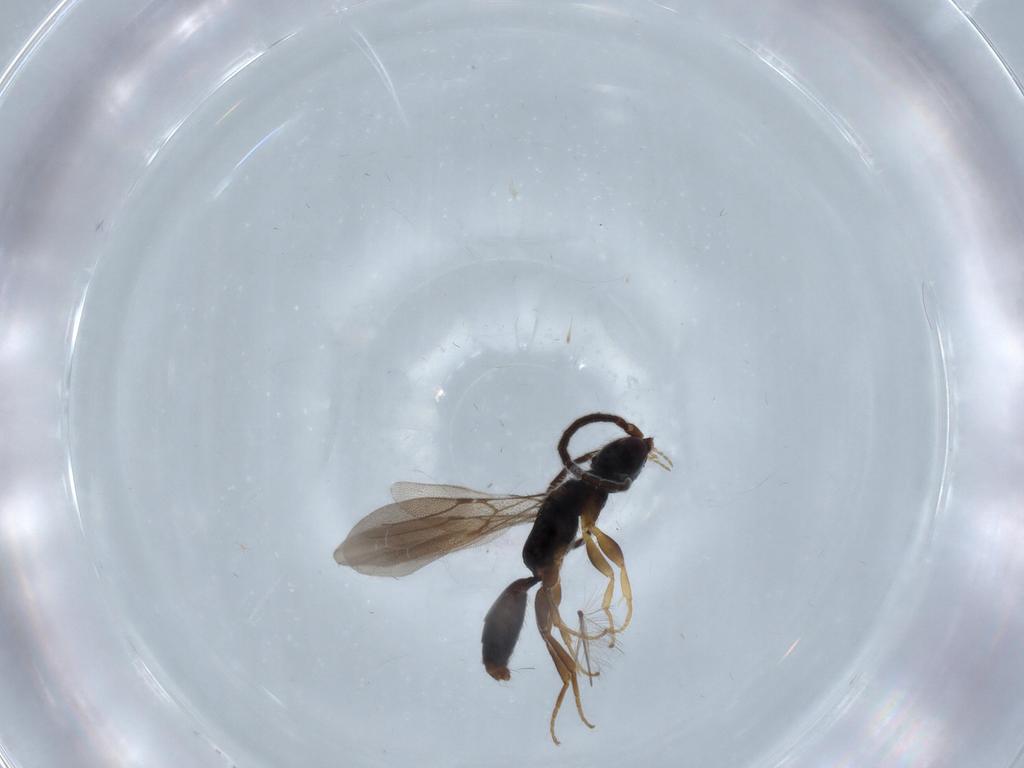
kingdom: Animalia
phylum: Arthropoda
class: Insecta
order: Hymenoptera
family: Bethylidae
